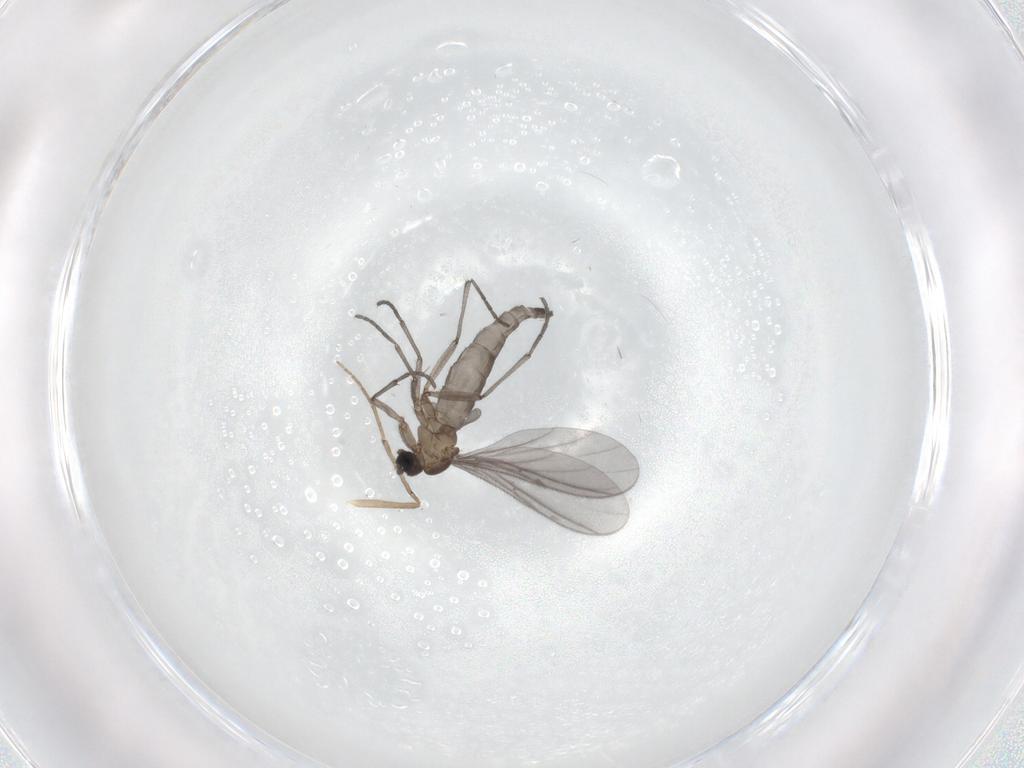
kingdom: Animalia
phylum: Arthropoda
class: Insecta
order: Diptera
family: Sciaridae
